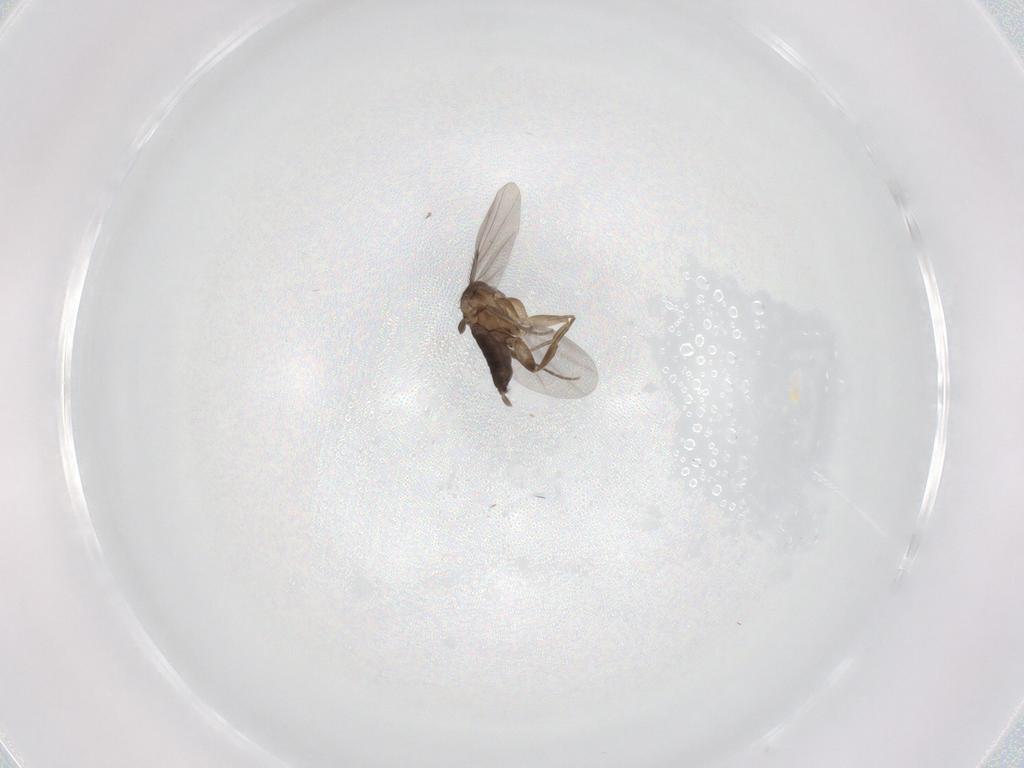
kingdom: Animalia
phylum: Arthropoda
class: Insecta
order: Diptera
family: Phoridae
